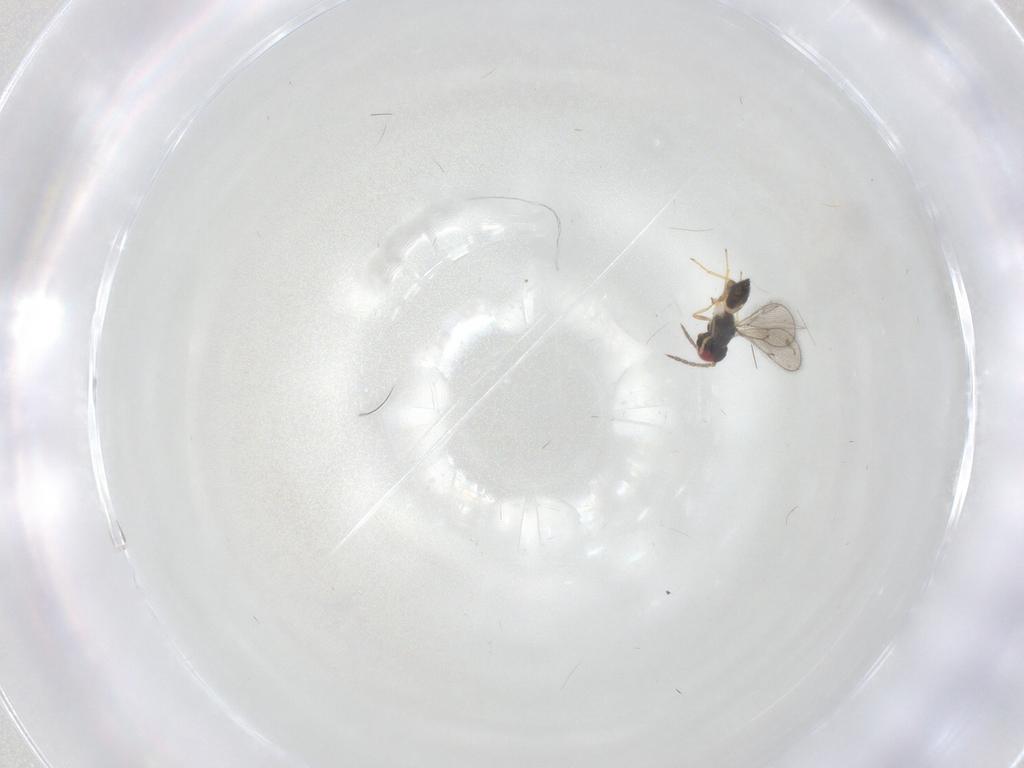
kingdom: Animalia
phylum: Arthropoda
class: Insecta
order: Hymenoptera
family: Eulophidae
